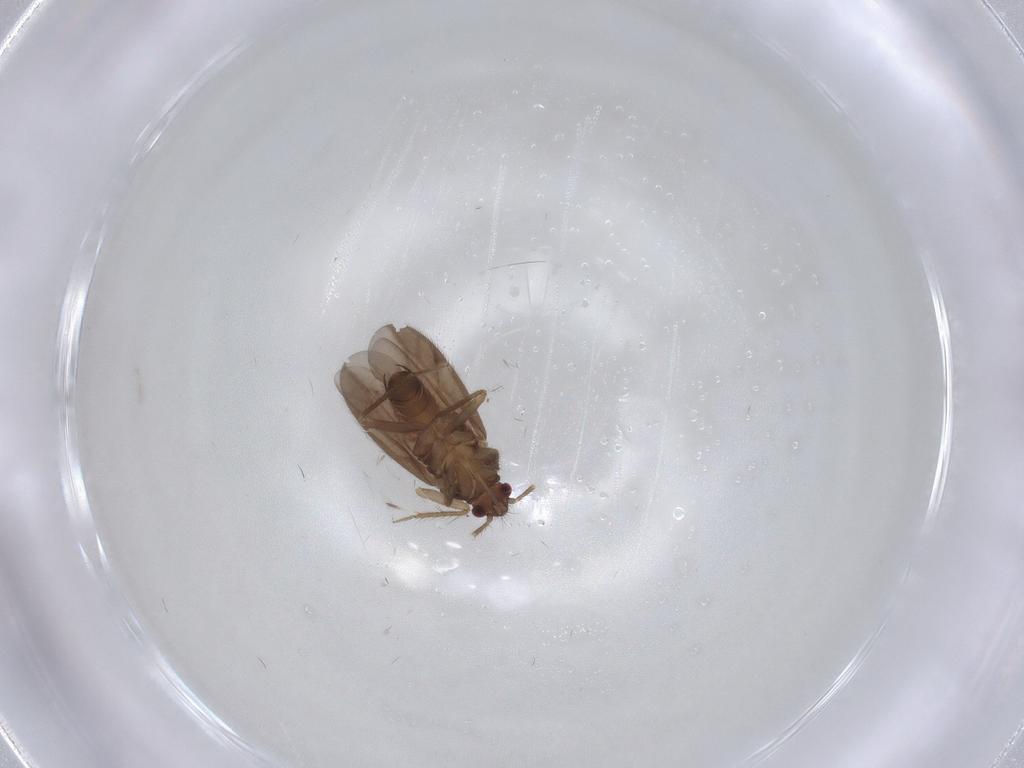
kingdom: Animalia
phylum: Arthropoda
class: Insecta
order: Hemiptera
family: Ceratocombidae
